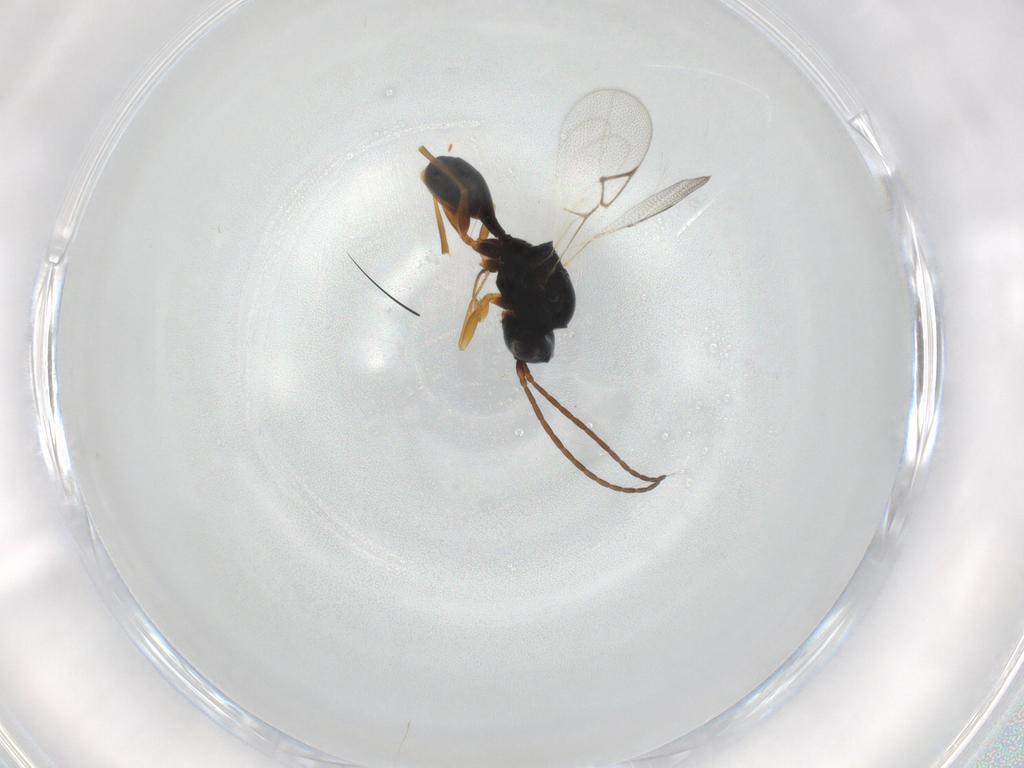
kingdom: Animalia
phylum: Arthropoda
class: Insecta
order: Hymenoptera
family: Figitidae
